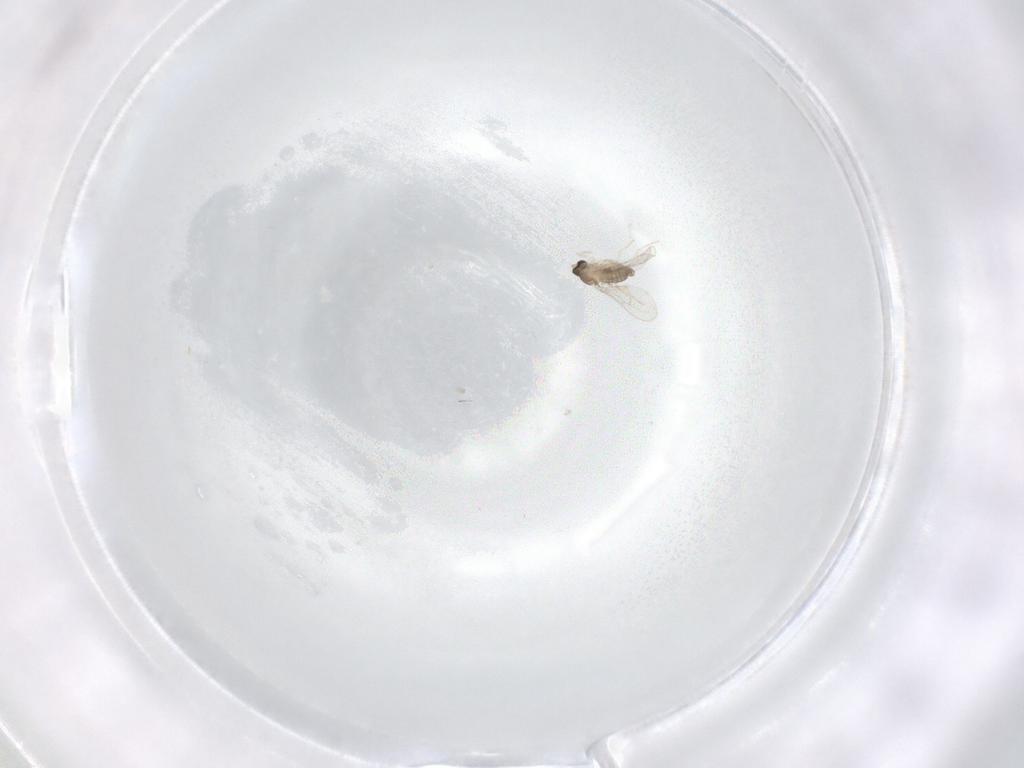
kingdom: Animalia
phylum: Arthropoda
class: Insecta
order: Diptera
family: Cecidomyiidae
